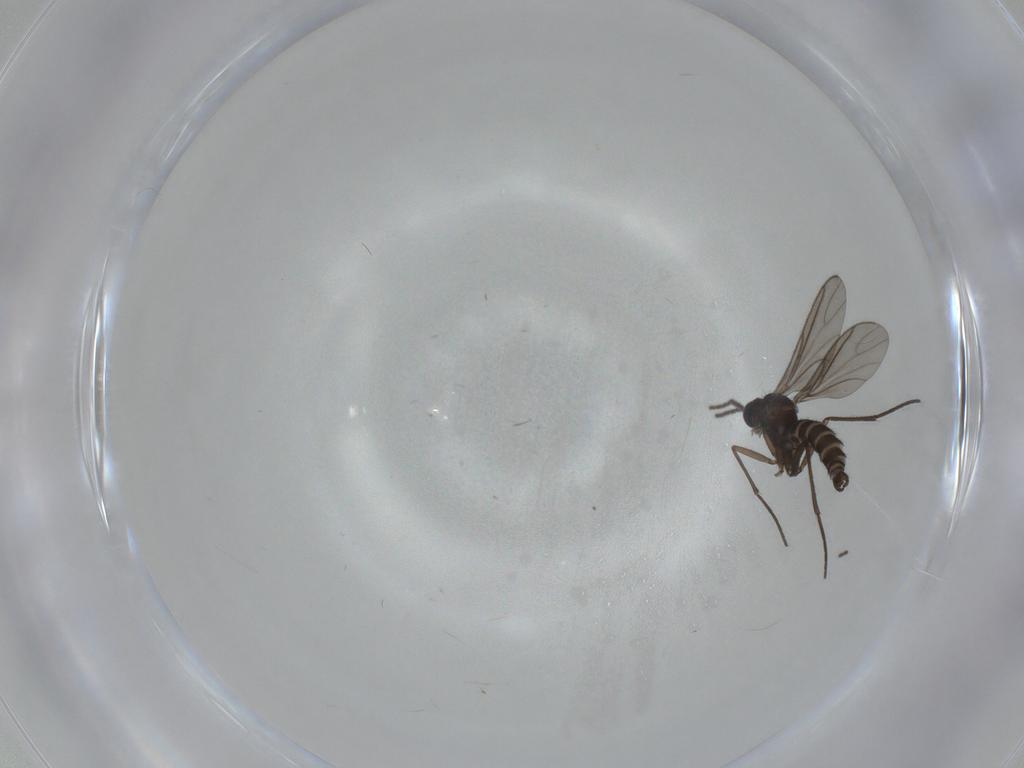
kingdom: Animalia
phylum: Arthropoda
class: Insecta
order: Diptera
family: Sciaridae
